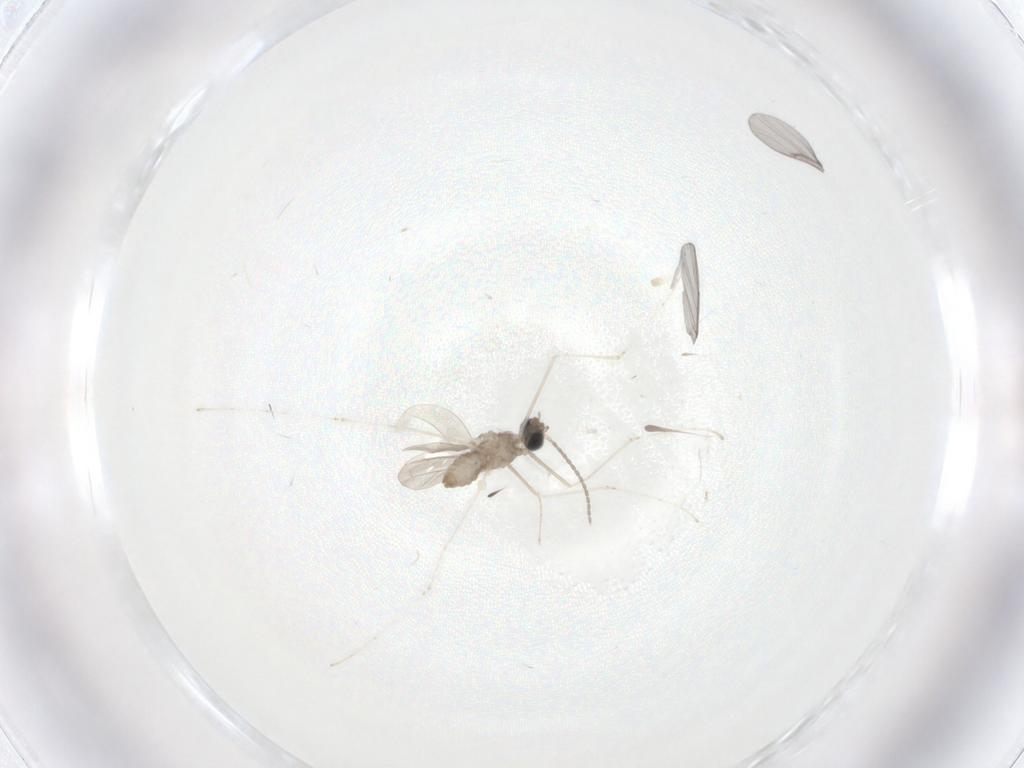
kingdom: Animalia
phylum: Arthropoda
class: Insecta
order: Diptera
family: Cecidomyiidae
